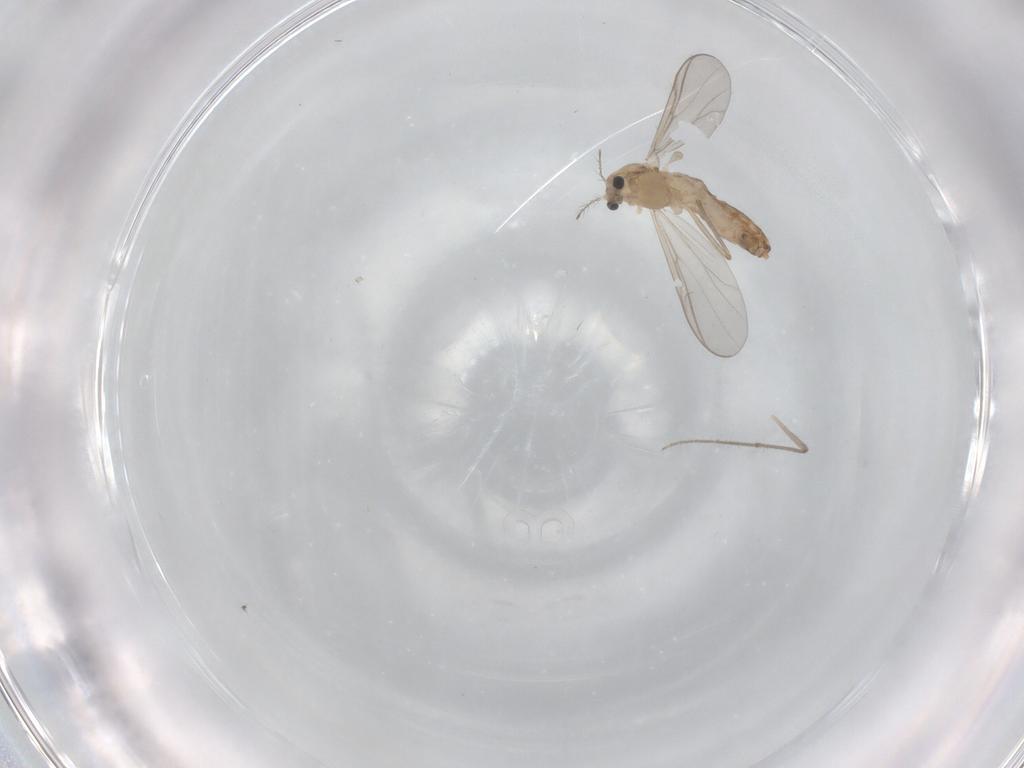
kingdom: Animalia
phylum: Arthropoda
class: Insecta
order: Diptera
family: Chironomidae
